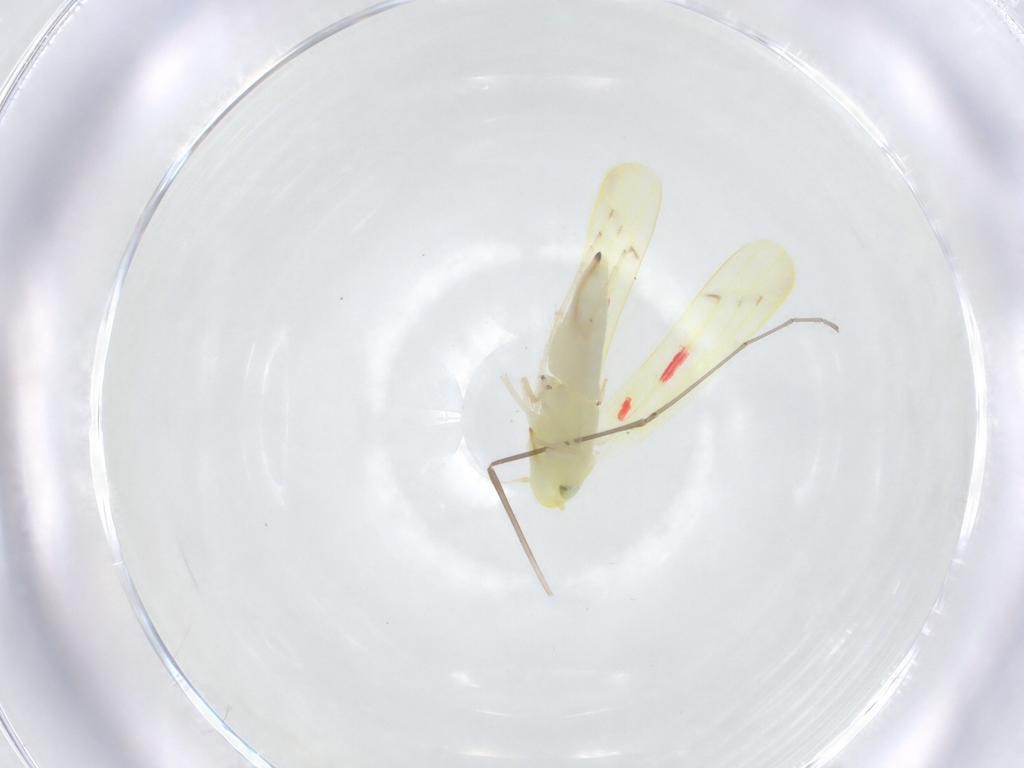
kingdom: Animalia
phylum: Arthropoda
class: Insecta
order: Hemiptera
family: Cicadellidae
